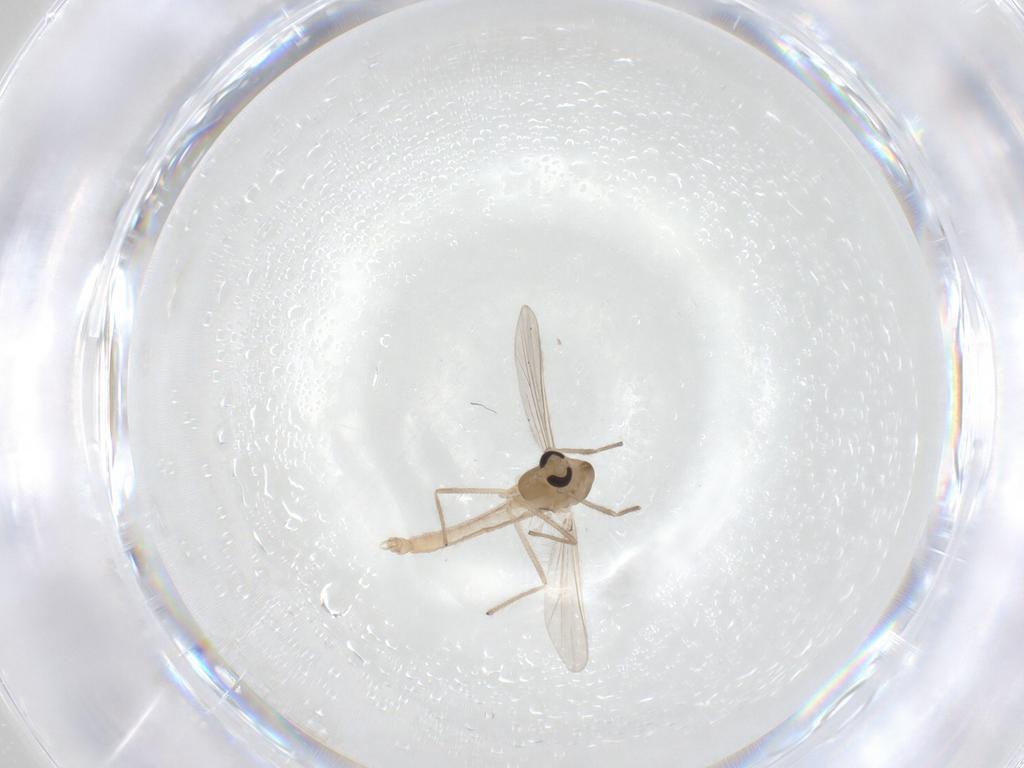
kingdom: Animalia
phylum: Arthropoda
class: Insecta
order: Diptera
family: Chironomidae
